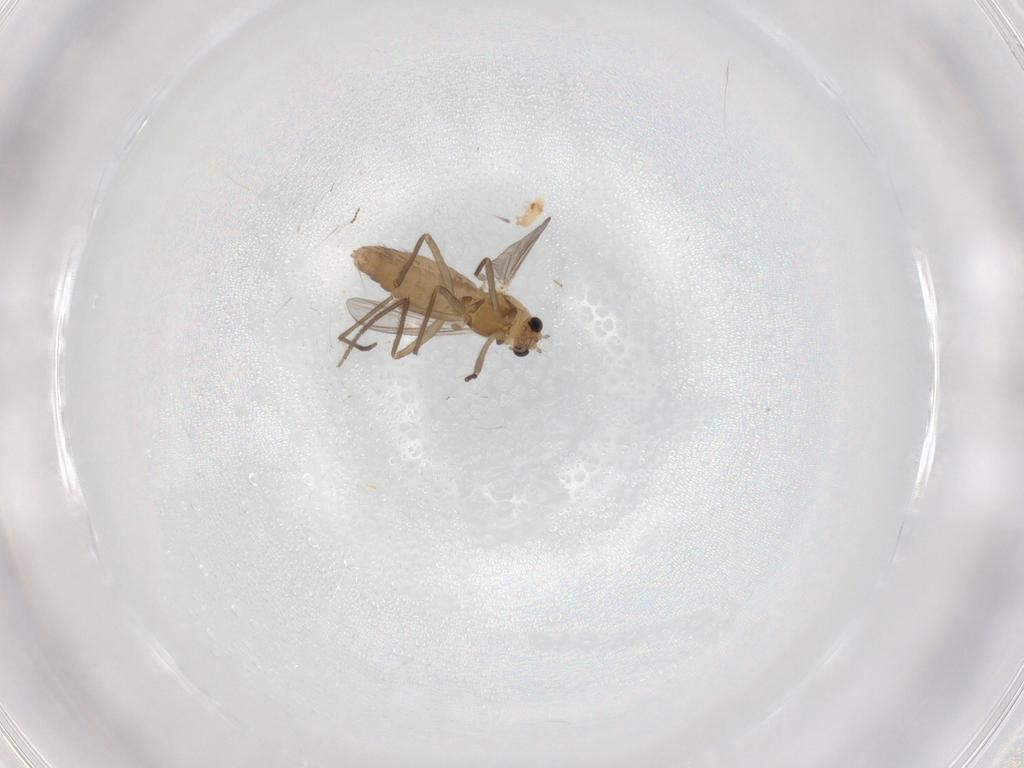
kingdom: Animalia
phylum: Arthropoda
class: Insecta
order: Diptera
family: Chironomidae
